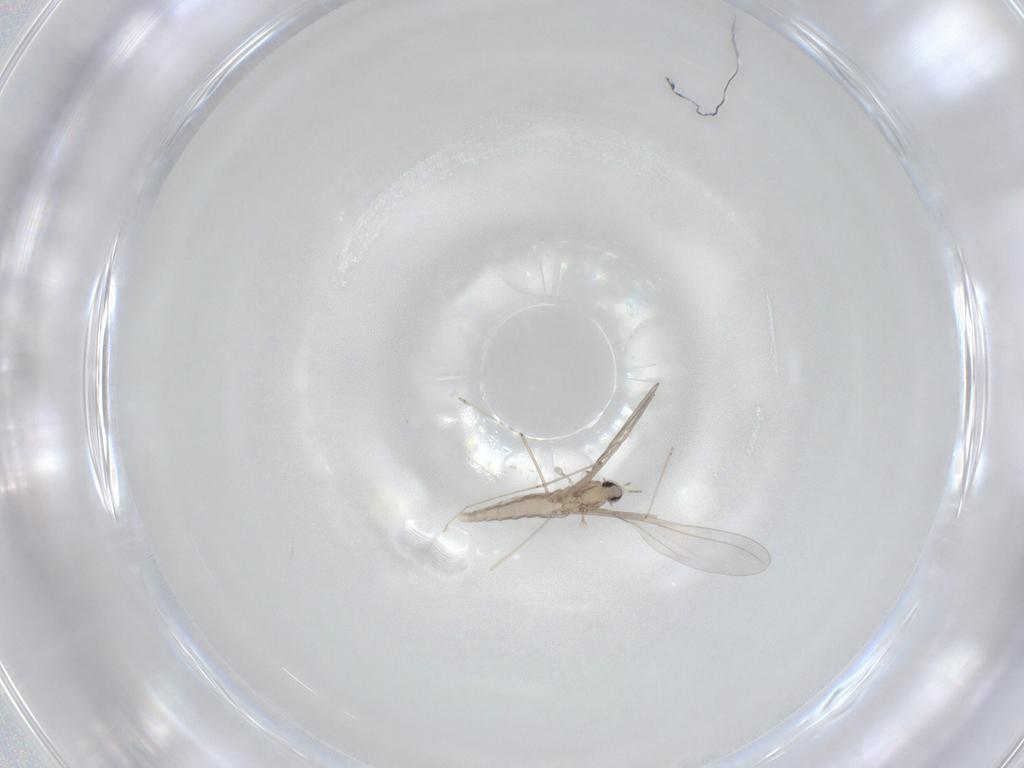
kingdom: Animalia
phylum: Arthropoda
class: Insecta
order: Diptera
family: Cecidomyiidae
